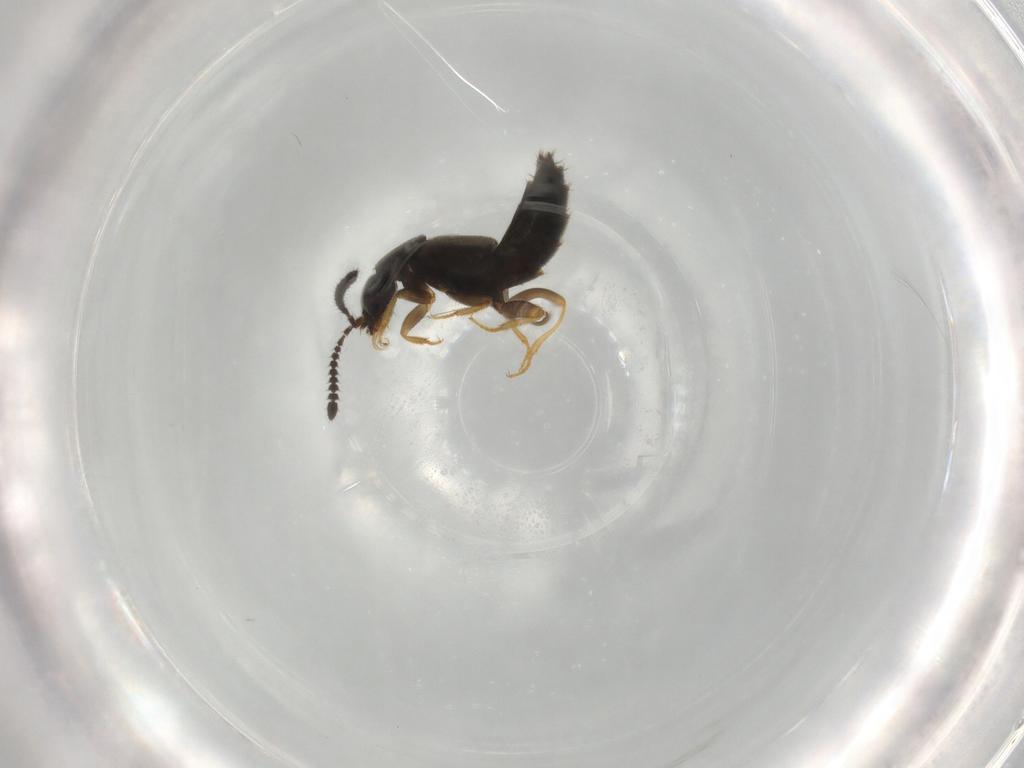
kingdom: Animalia
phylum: Arthropoda
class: Insecta
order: Coleoptera
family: Staphylinidae
